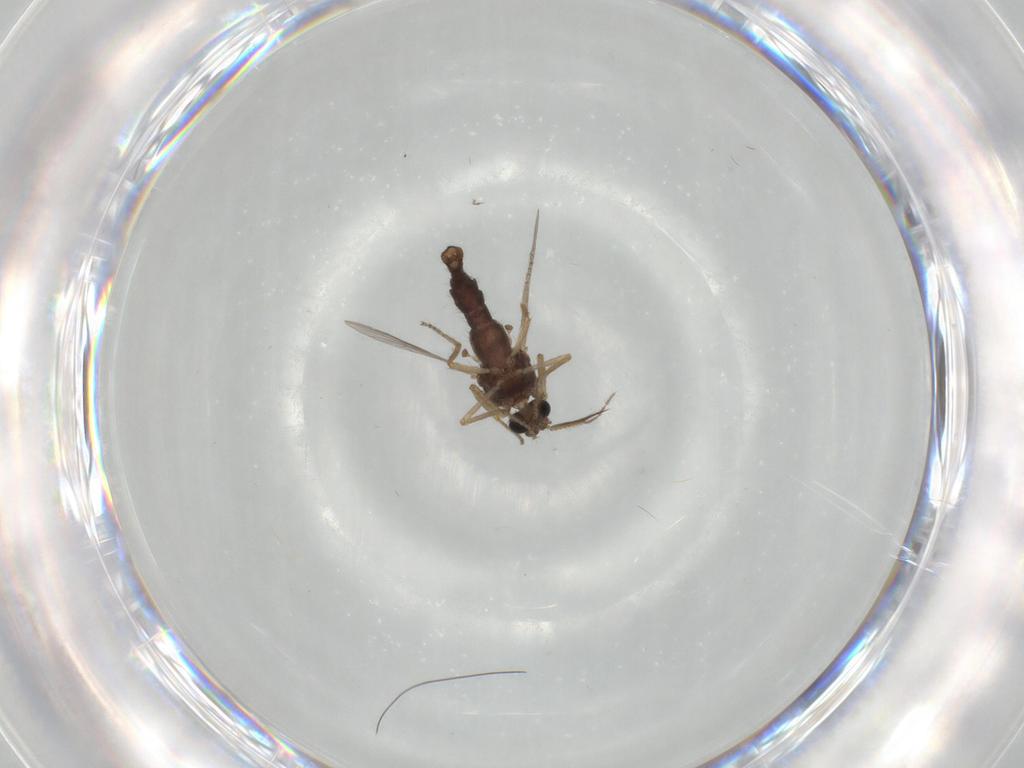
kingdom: Animalia
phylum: Arthropoda
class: Insecta
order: Diptera
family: Ceratopogonidae
